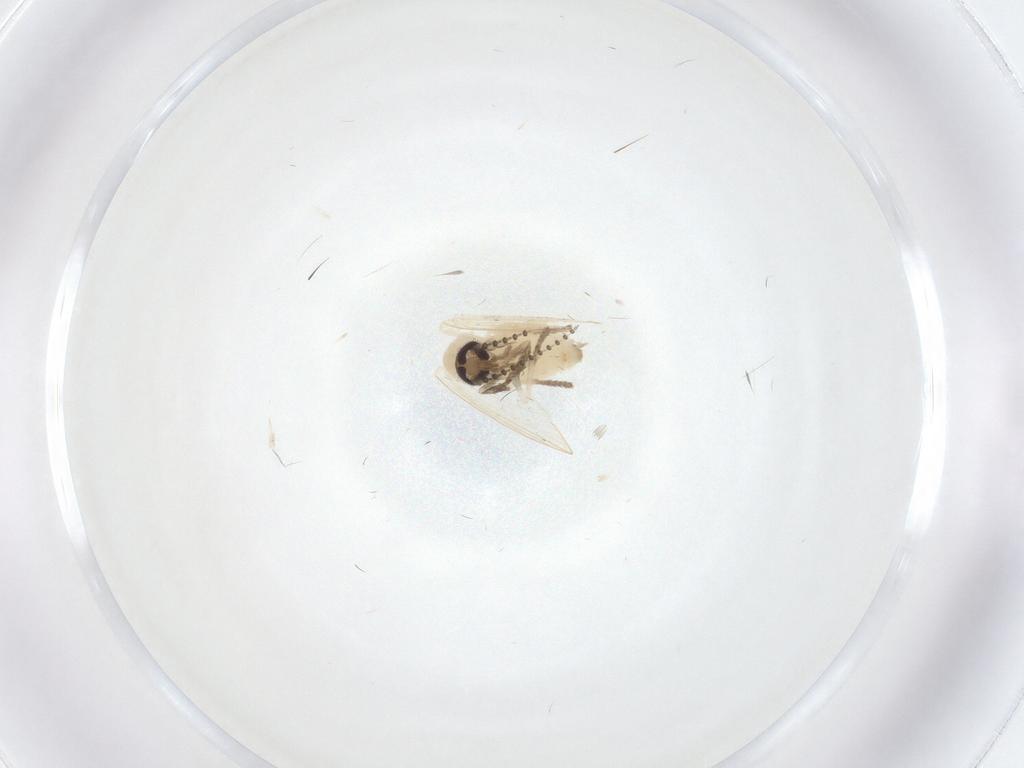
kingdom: Animalia
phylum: Arthropoda
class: Insecta
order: Diptera
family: Psychodidae
